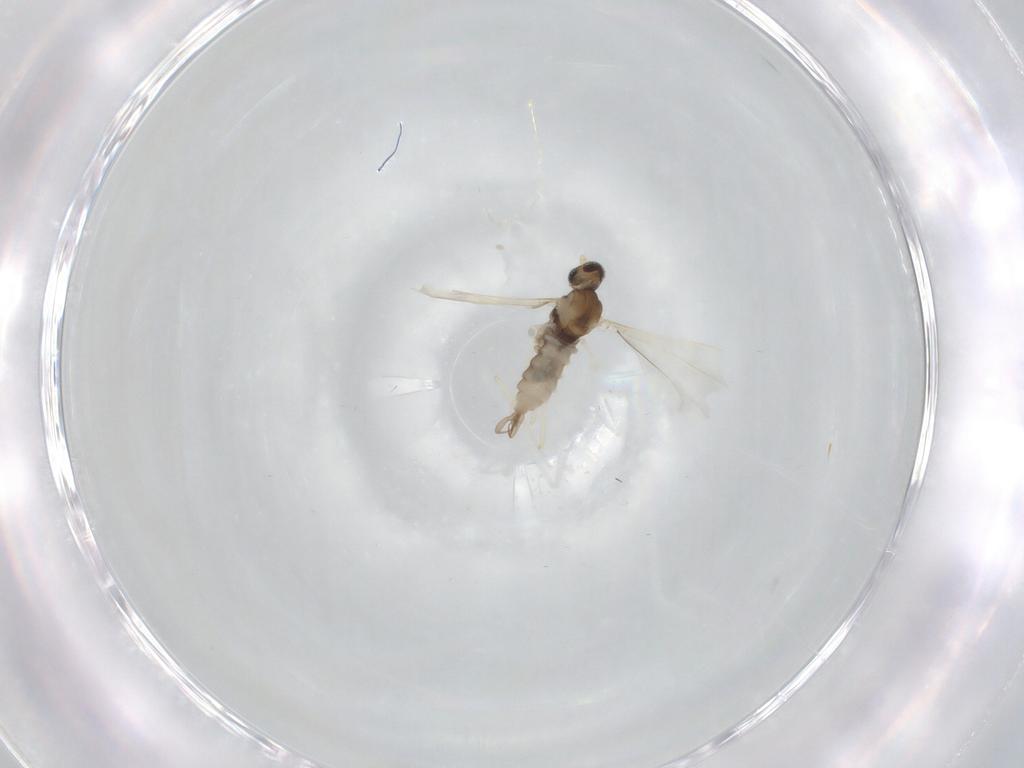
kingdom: Animalia
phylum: Arthropoda
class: Insecta
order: Diptera
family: Cecidomyiidae
